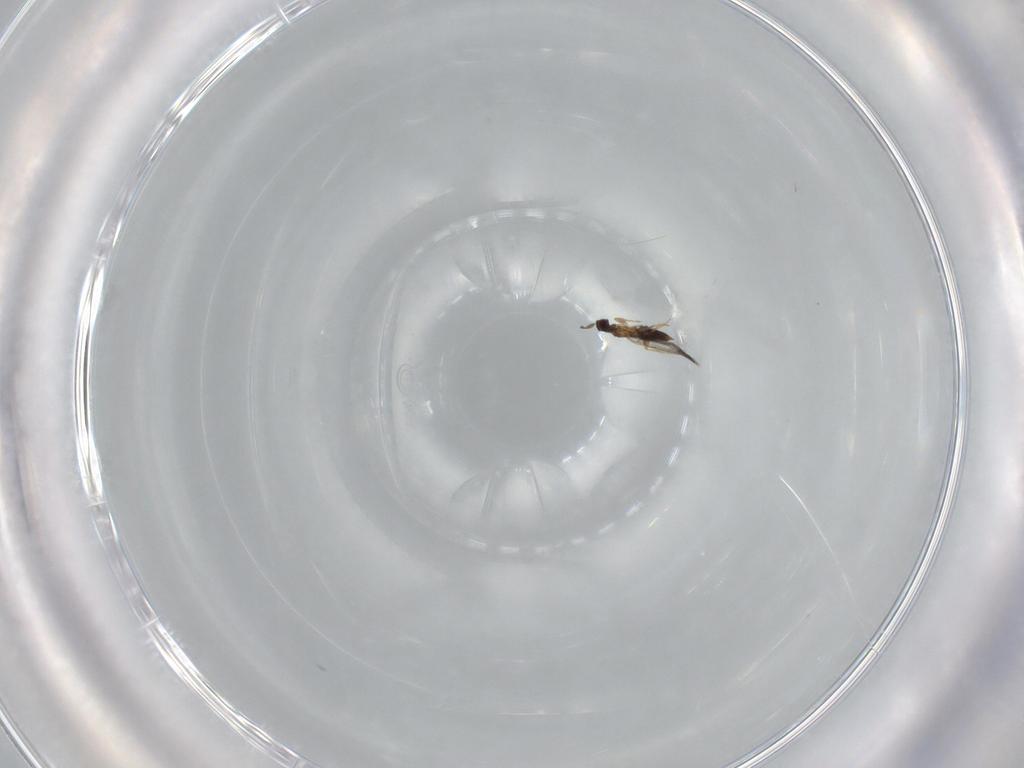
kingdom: Animalia
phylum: Arthropoda
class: Insecta
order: Hymenoptera
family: Mymaridae
